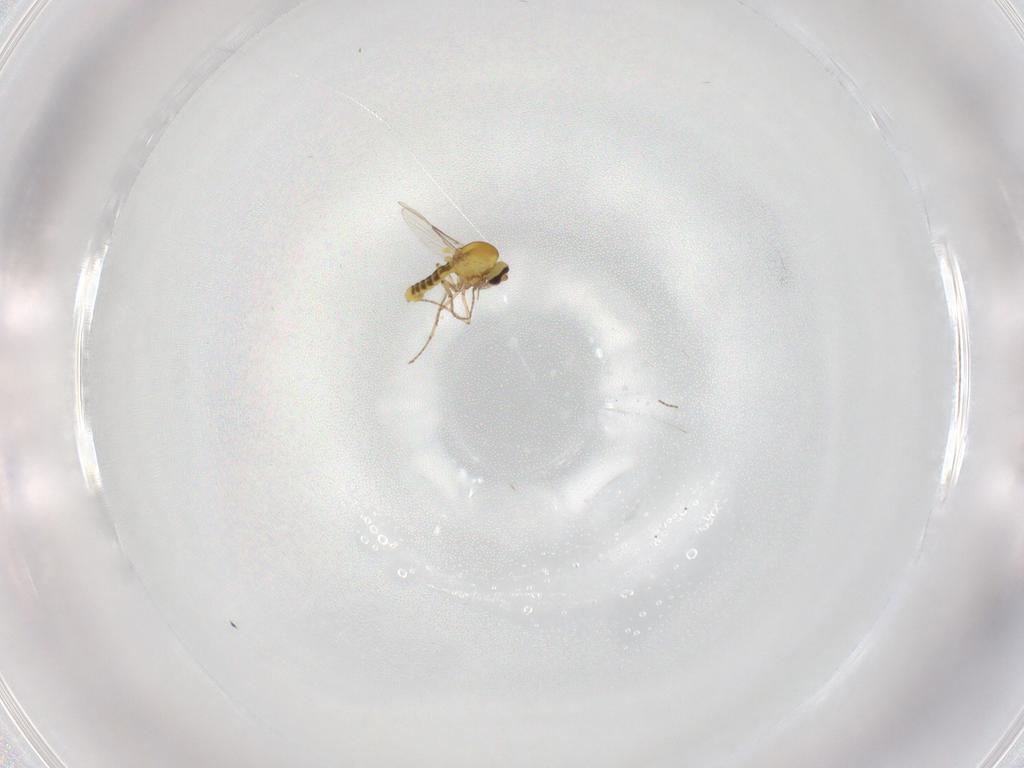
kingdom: Animalia
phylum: Arthropoda
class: Insecta
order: Diptera
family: Ceratopogonidae
